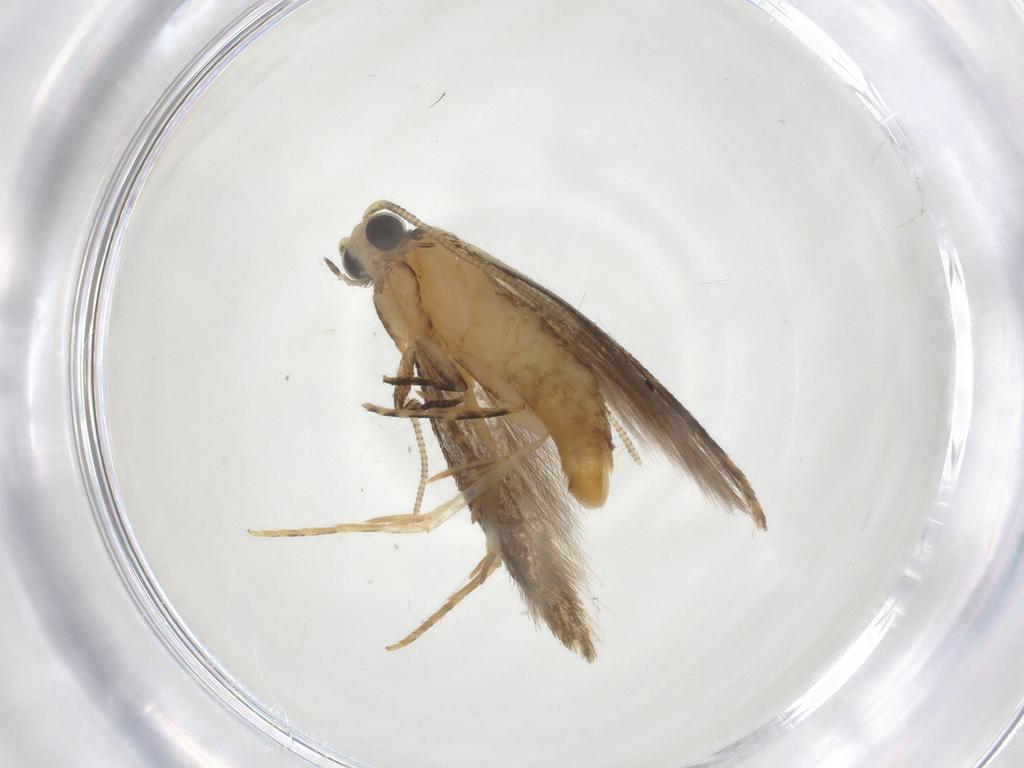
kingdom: Animalia
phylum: Arthropoda
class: Insecta
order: Lepidoptera
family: Tineidae
